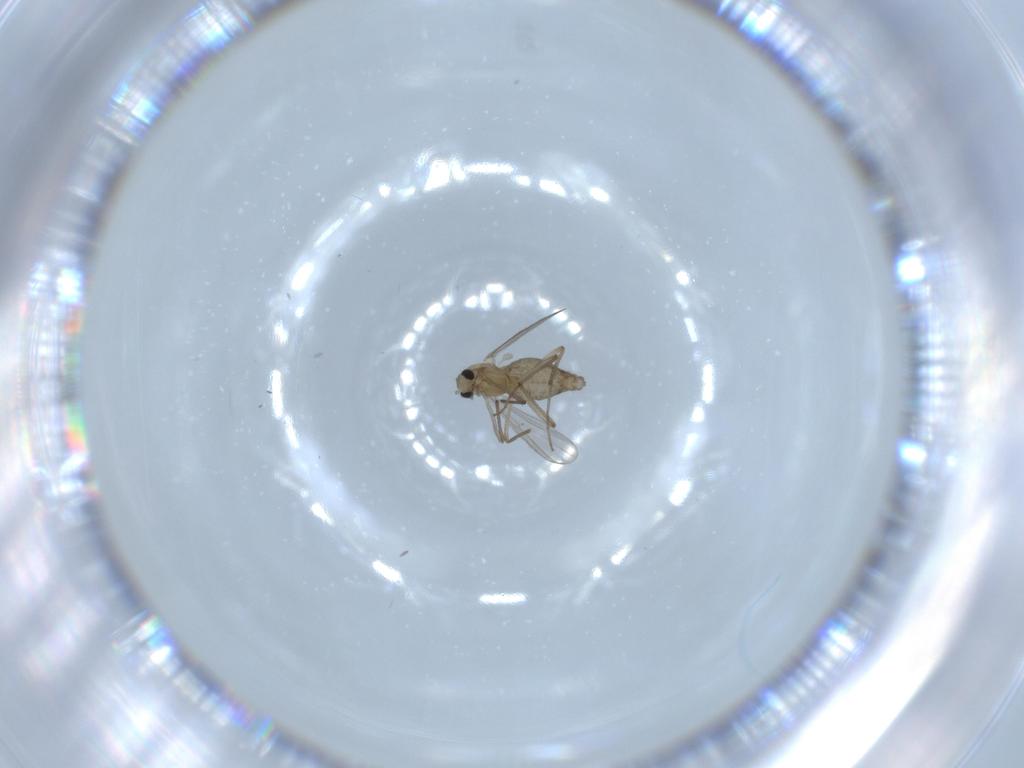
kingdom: Animalia
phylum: Arthropoda
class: Insecta
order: Diptera
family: Chironomidae
